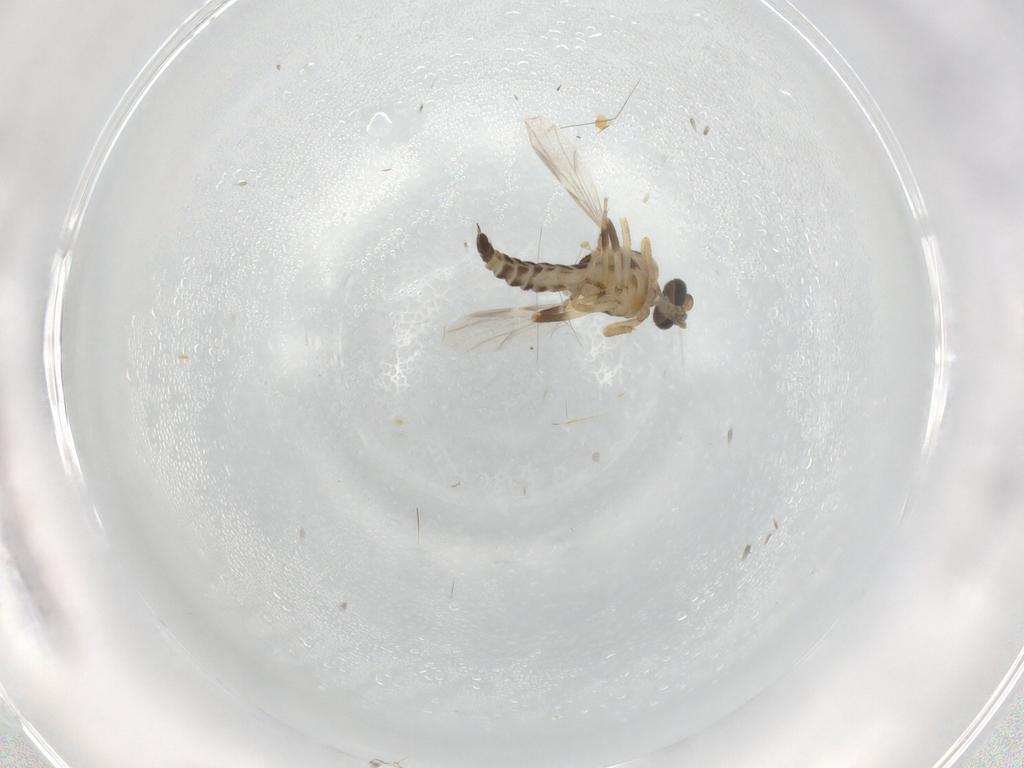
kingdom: Animalia
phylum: Arthropoda
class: Insecta
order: Diptera
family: Ceratopogonidae
